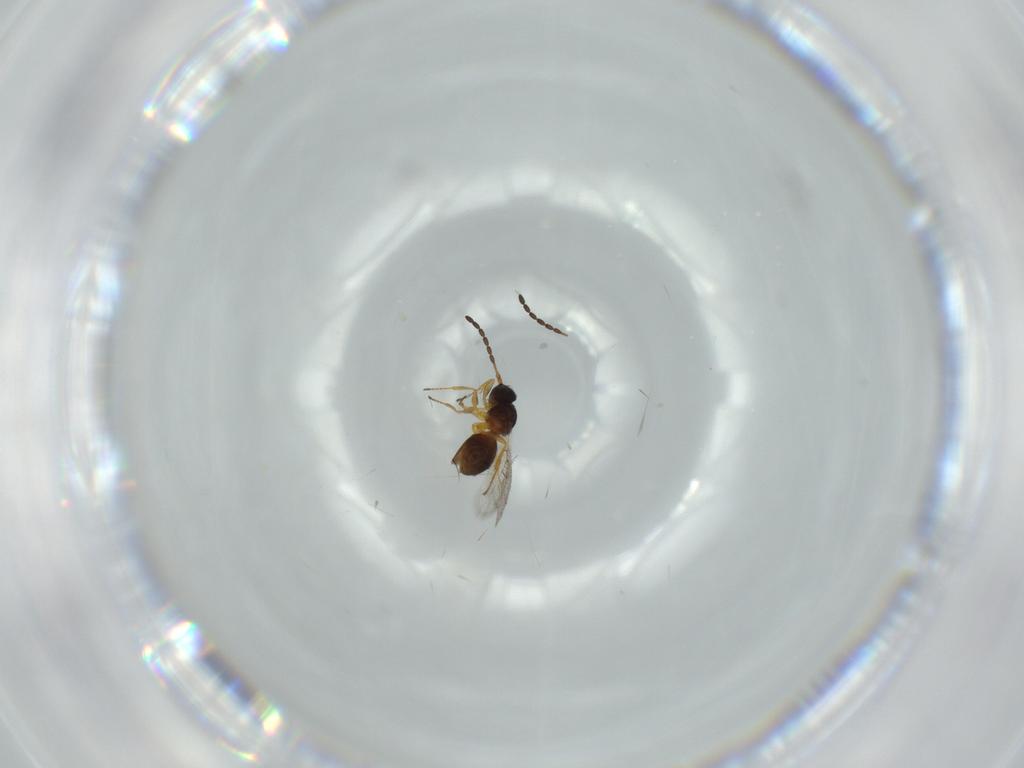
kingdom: Animalia
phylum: Arthropoda
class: Insecta
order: Hymenoptera
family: Figitidae
